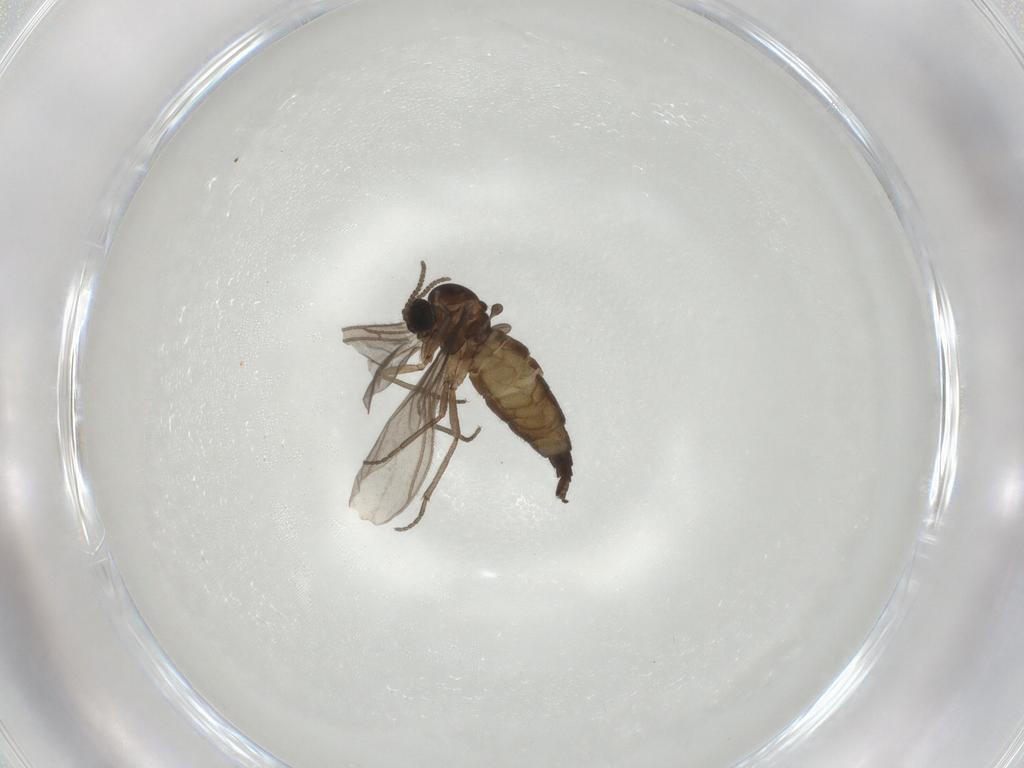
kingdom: Animalia
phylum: Arthropoda
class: Insecta
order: Diptera
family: Sciaridae
